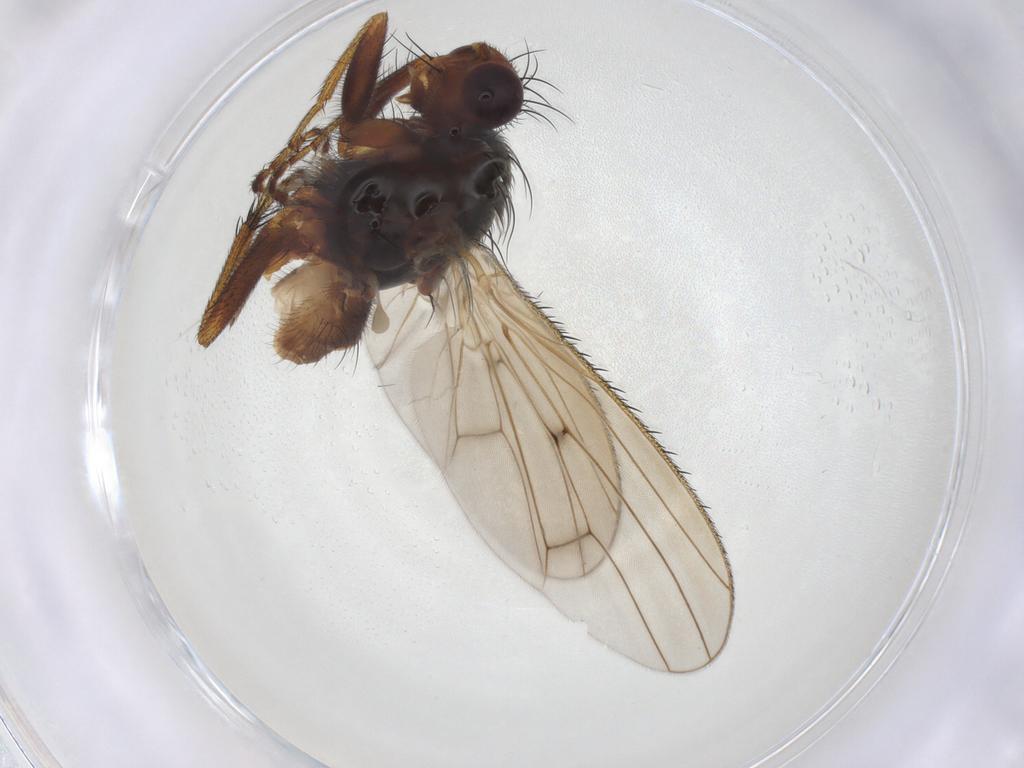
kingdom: Animalia
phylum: Arthropoda
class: Insecta
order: Diptera
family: Heleomyzidae
